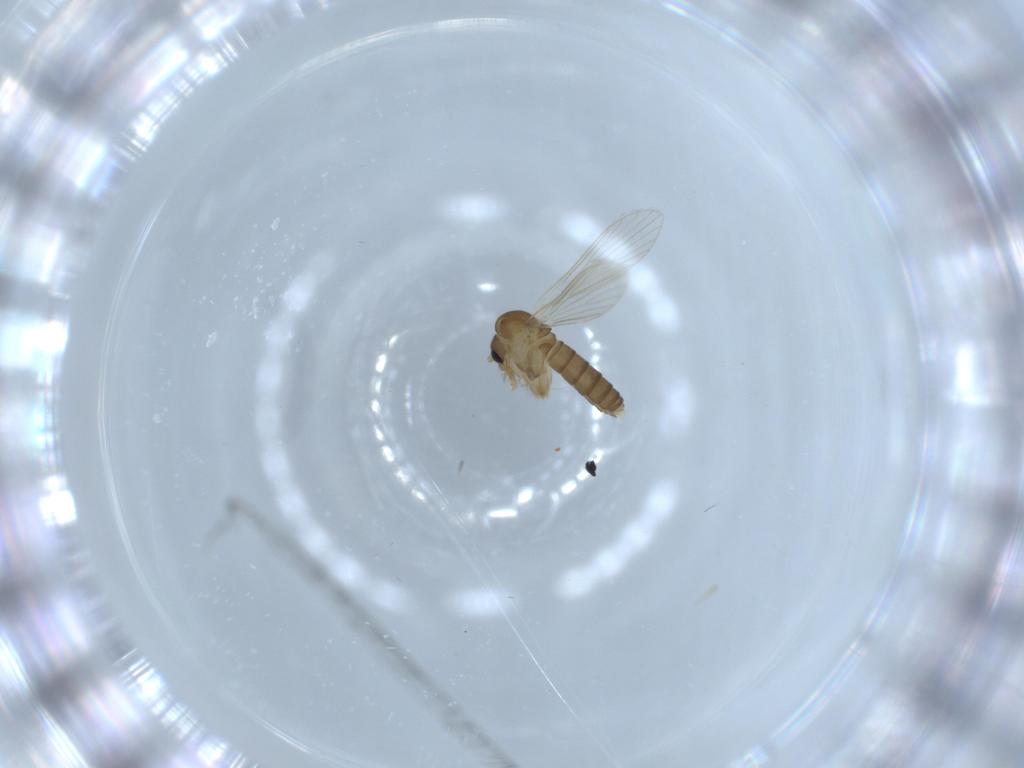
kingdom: Animalia
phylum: Arthropoda
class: Insecta
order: Diptera
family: Psychodidae
